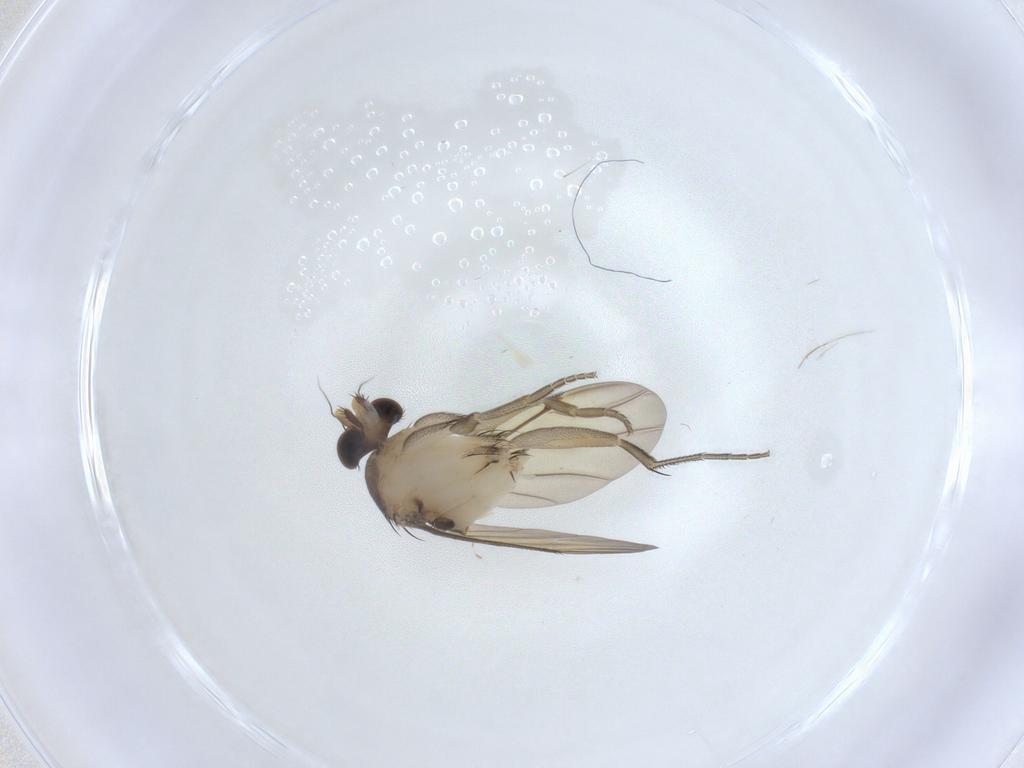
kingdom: Animalia
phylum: Arthropoda
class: Insecta
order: Diptera
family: Phoridae
